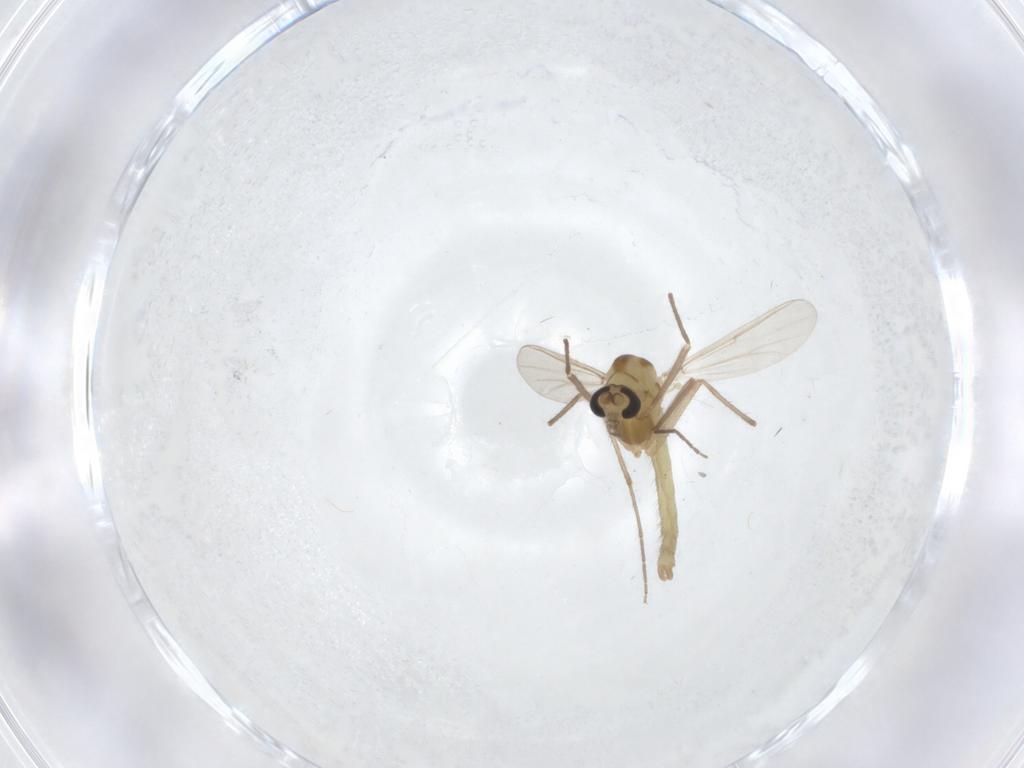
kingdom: Animalia
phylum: Arthropoda
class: Insecta
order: Diptera
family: Chironomidae
